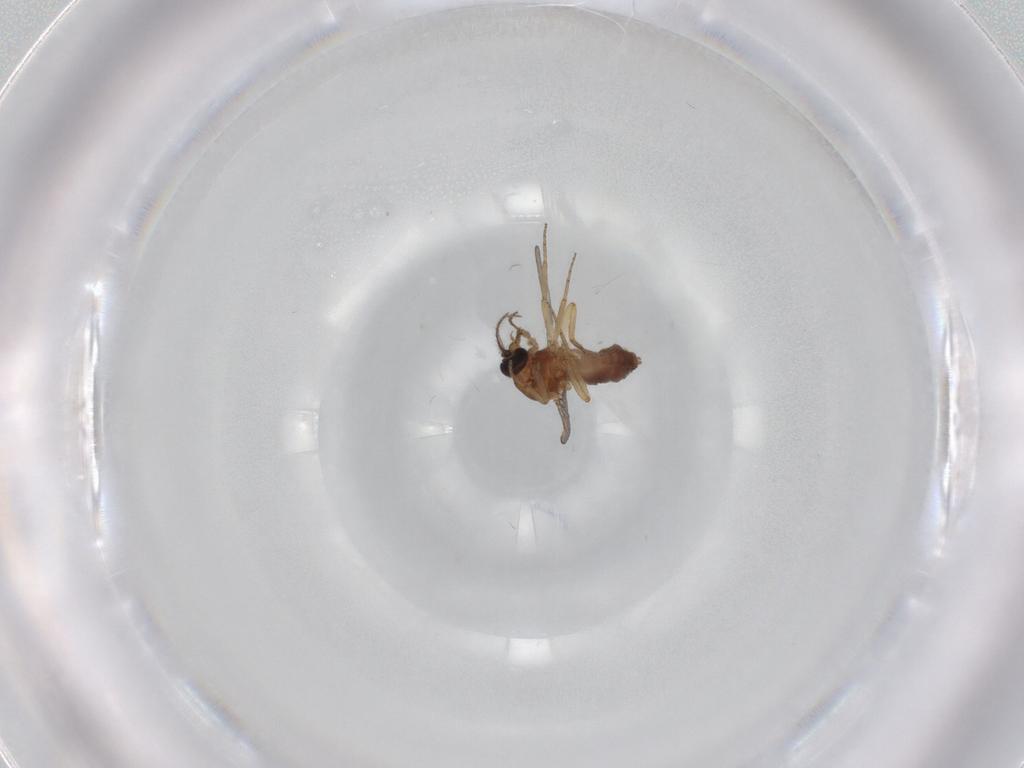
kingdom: Animalia
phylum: Arthropoda
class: Insecta
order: Diptera
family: Ceratopogonidae
